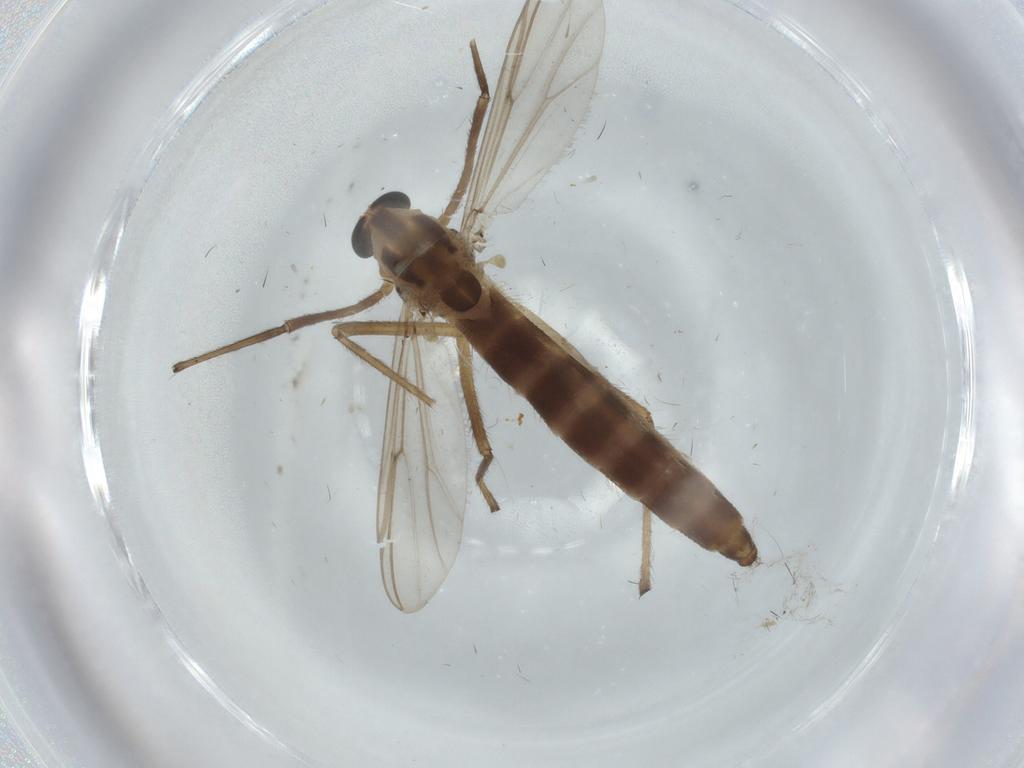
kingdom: Animalia
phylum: Arthropoda
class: Insecta
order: Diptera
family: Chironomidae
